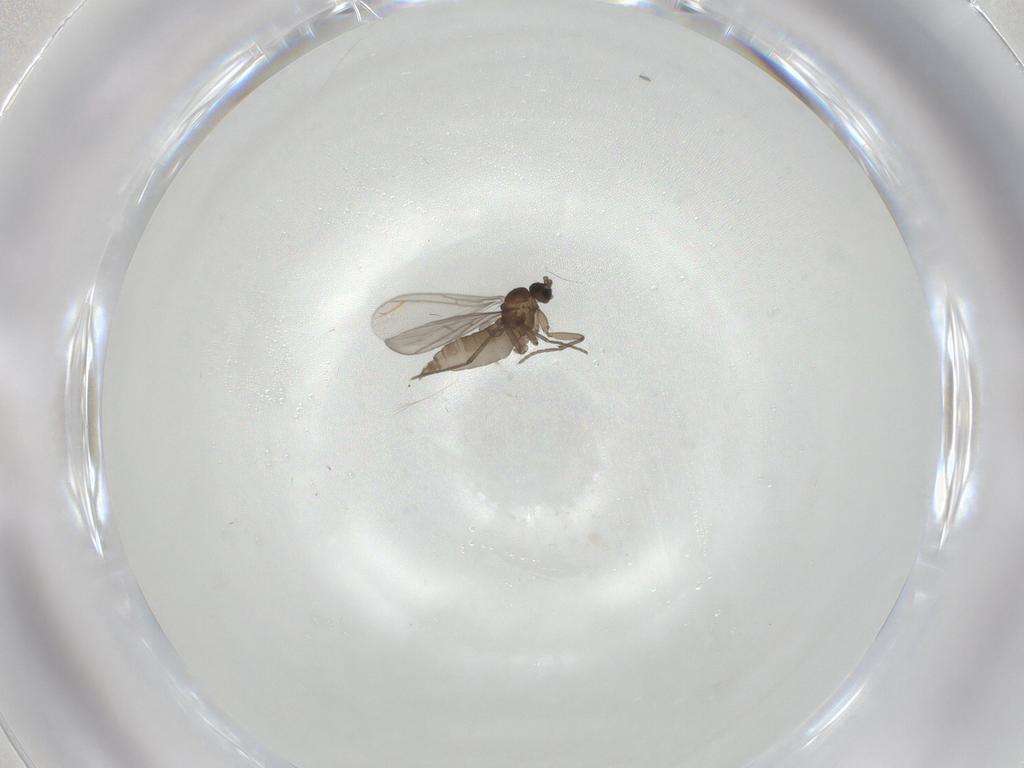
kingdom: Animalia
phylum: Arthropoda
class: Insecta
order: Diptera
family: Limoniidae
